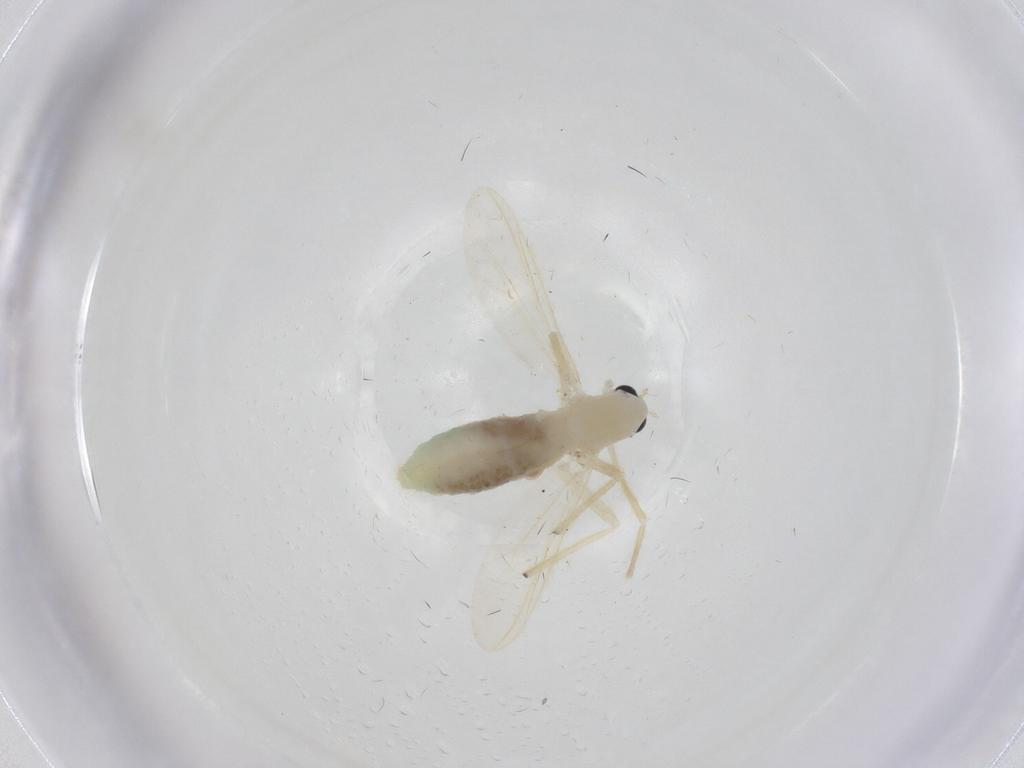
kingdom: Animalia
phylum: Arthropoda
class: Insecta
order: Diptera
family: Chironomidae
